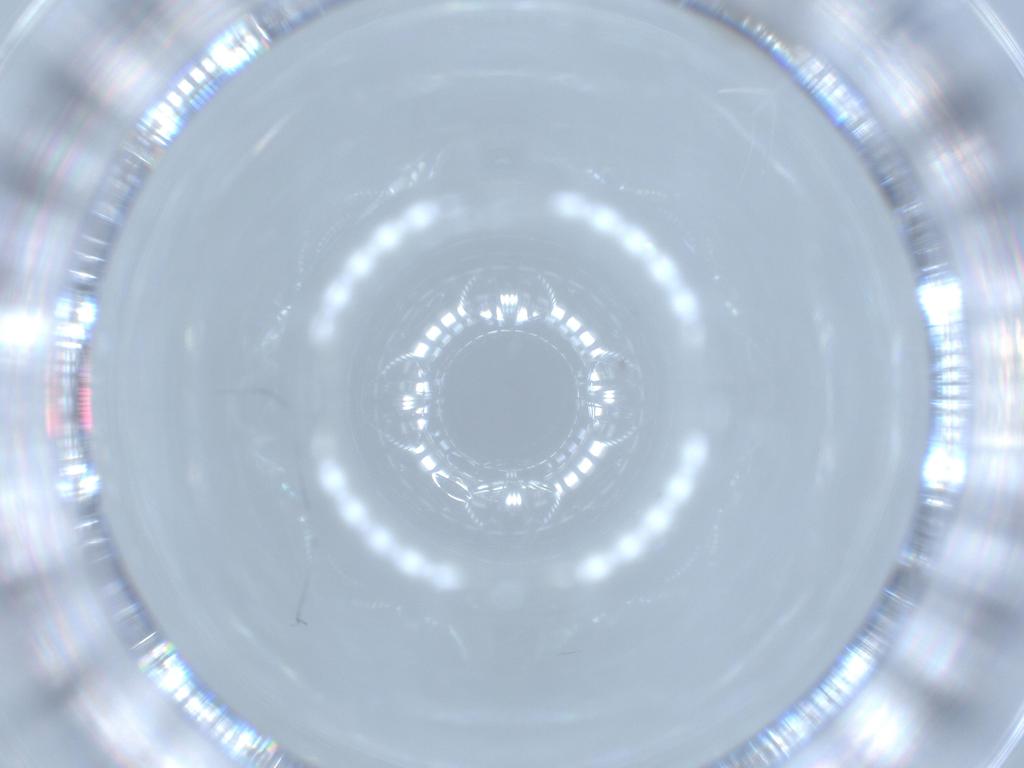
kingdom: Animalia
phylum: Arthropoda
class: Insecta
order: Diptera
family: Cecidomyiidae
